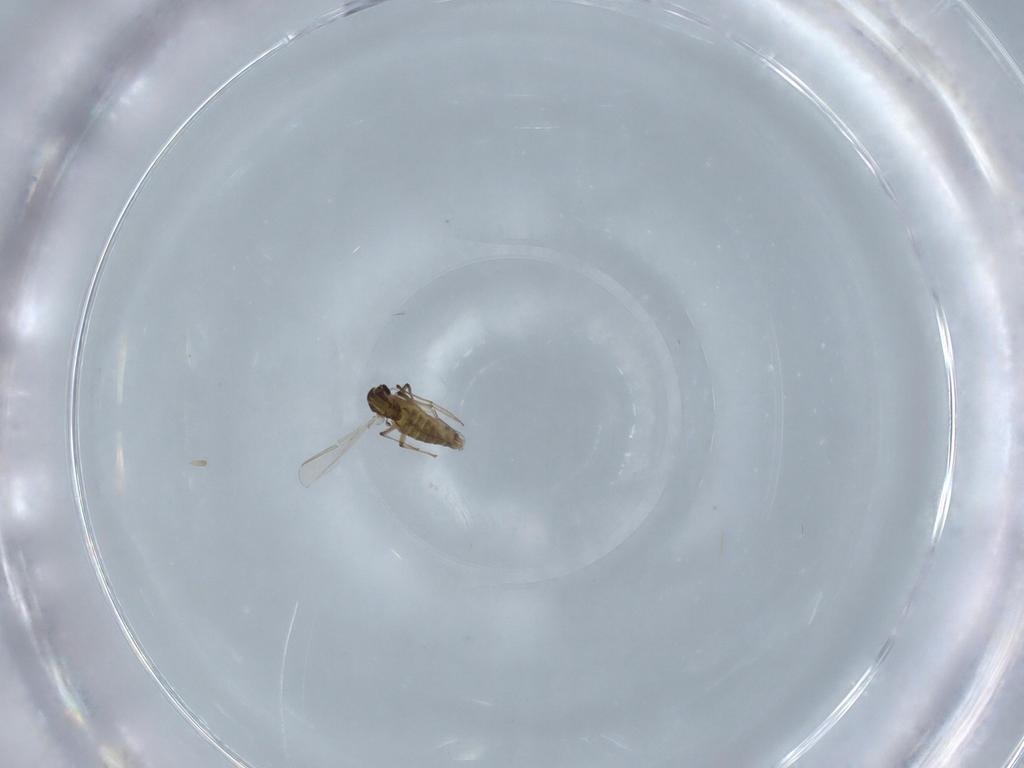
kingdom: Animalia
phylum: Arthropoda
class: Insecta
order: Diptera
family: Chironomidae
